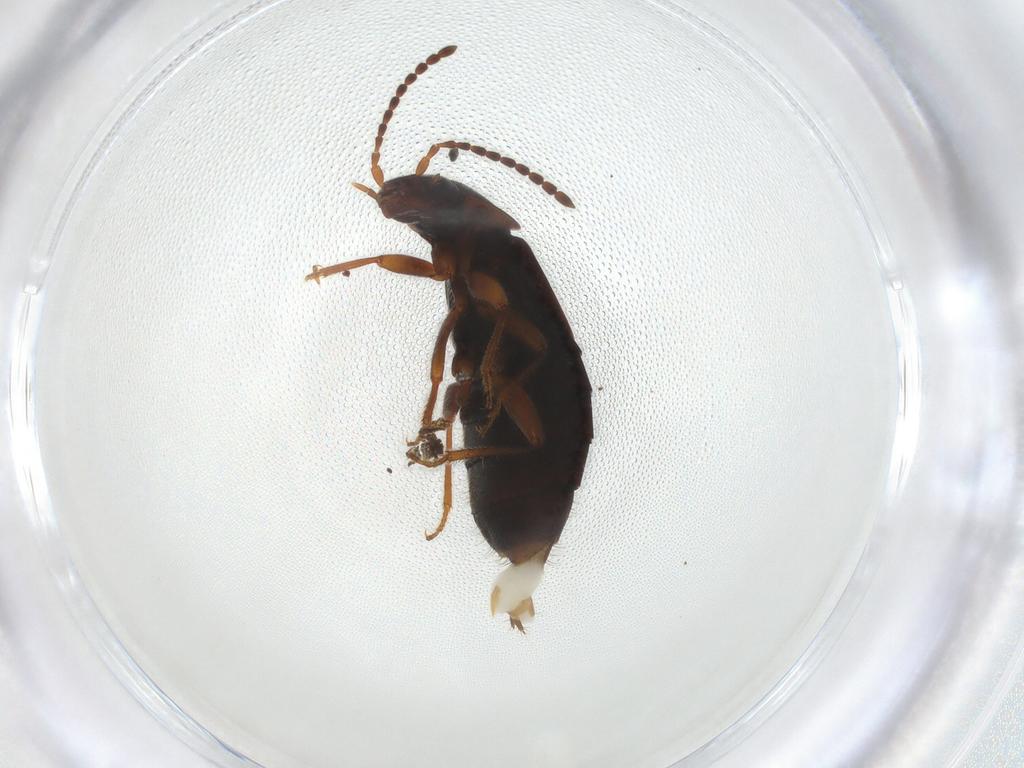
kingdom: Animalia
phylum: Arthropoda
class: Insecta
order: Coleoptera
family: Staphylinidae
